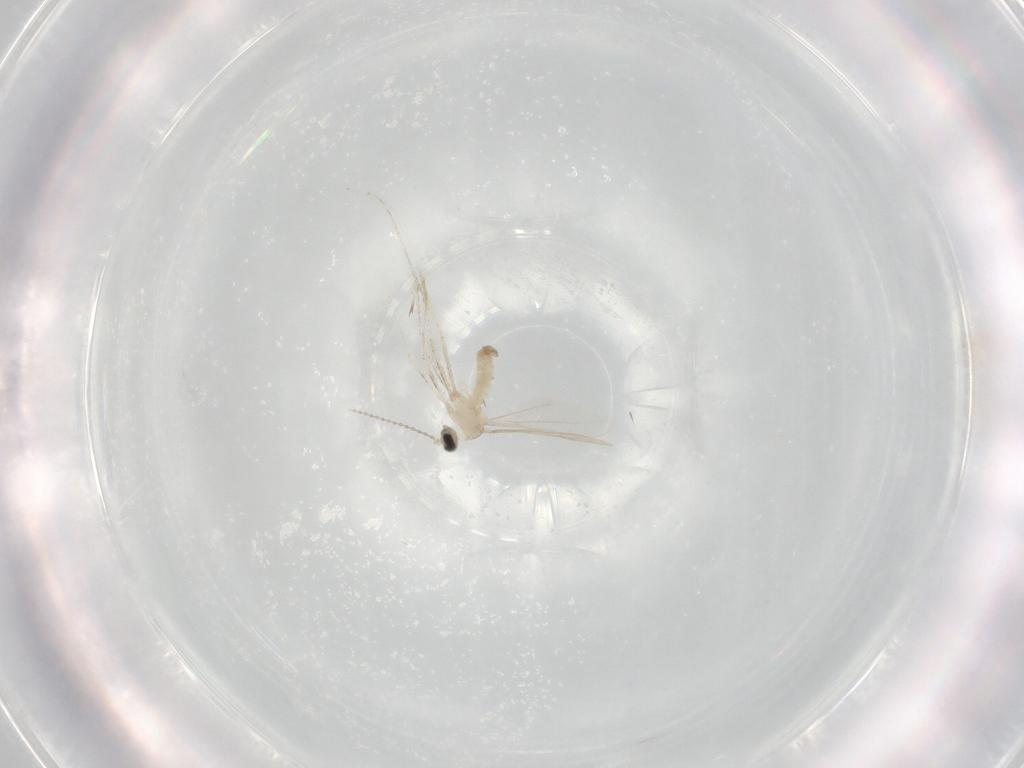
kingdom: Animalia
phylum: Arthropoda
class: Insecta
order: Diptera
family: Cecidomyiidae
